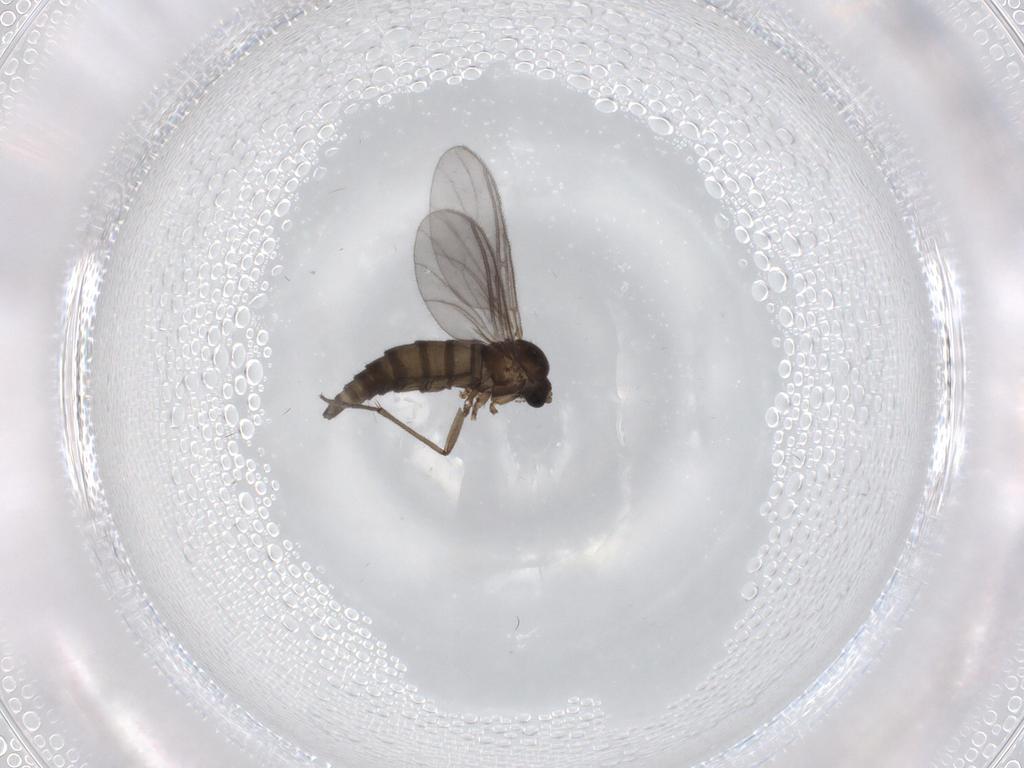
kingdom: Animalia
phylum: Arthropoda
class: Insecta
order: Diptera
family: Sciaridae
